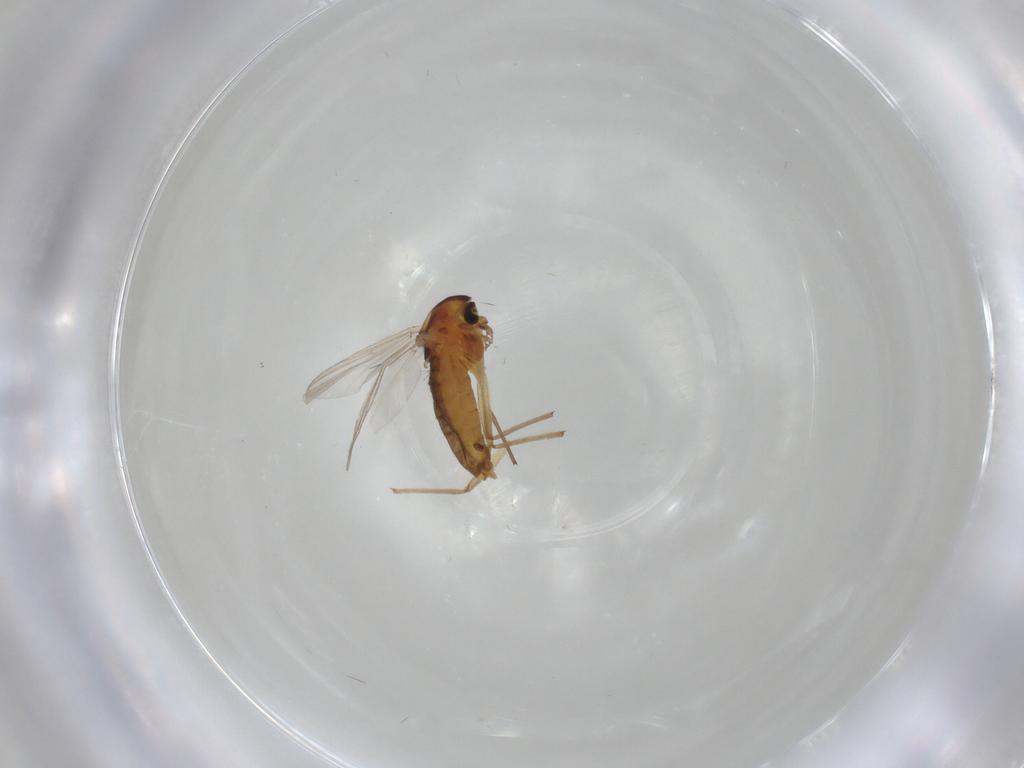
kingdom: Animalia
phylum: Arthropoda
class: Insecta
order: Diptera
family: Chironomidae
